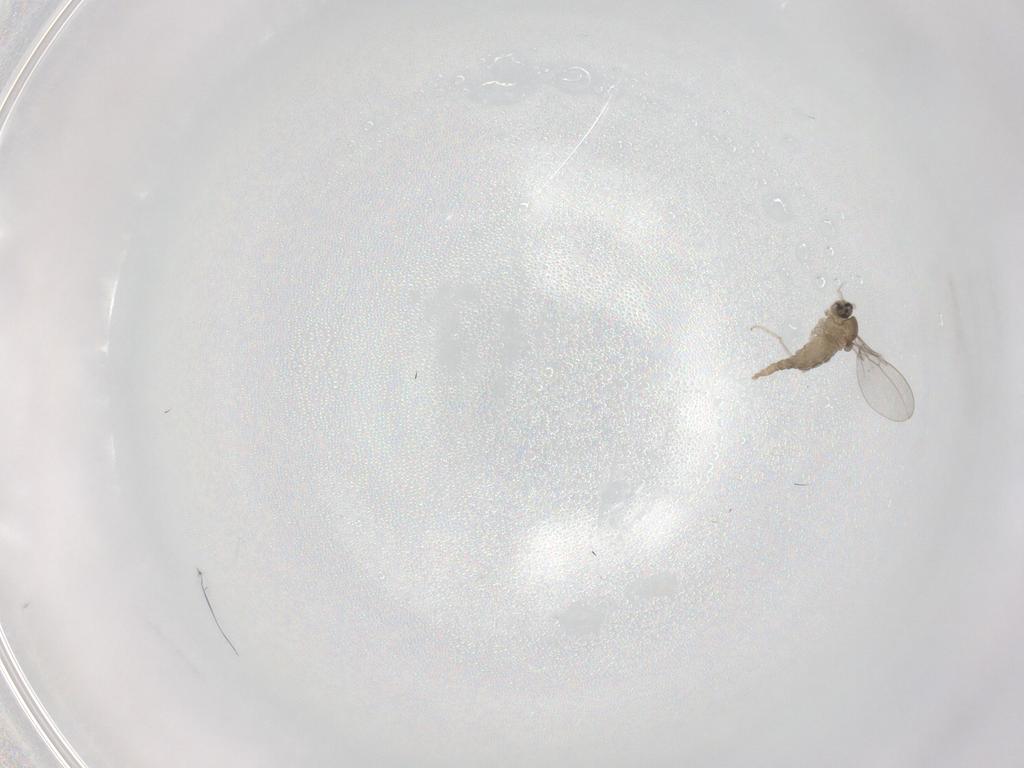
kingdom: Animalia
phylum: Arthropoda
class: Insecta
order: Diptera
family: Cecidomyiidae
